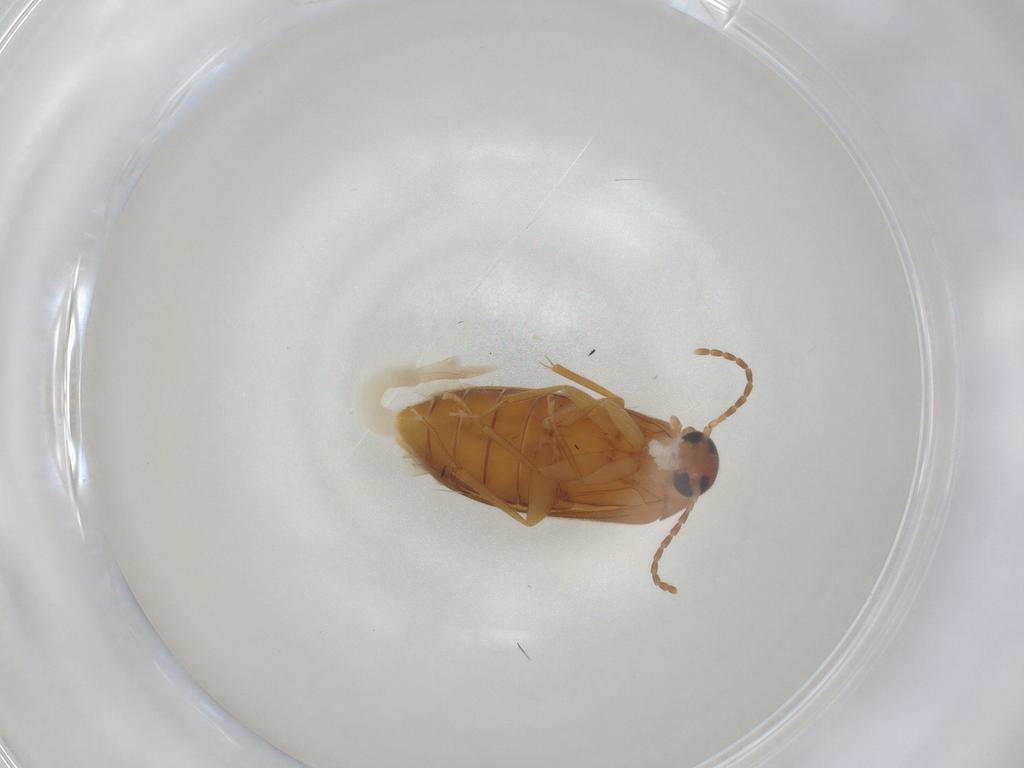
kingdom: Animalia
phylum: Arthropoda
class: Insecta
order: Coleoptera
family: Scraptiidae
